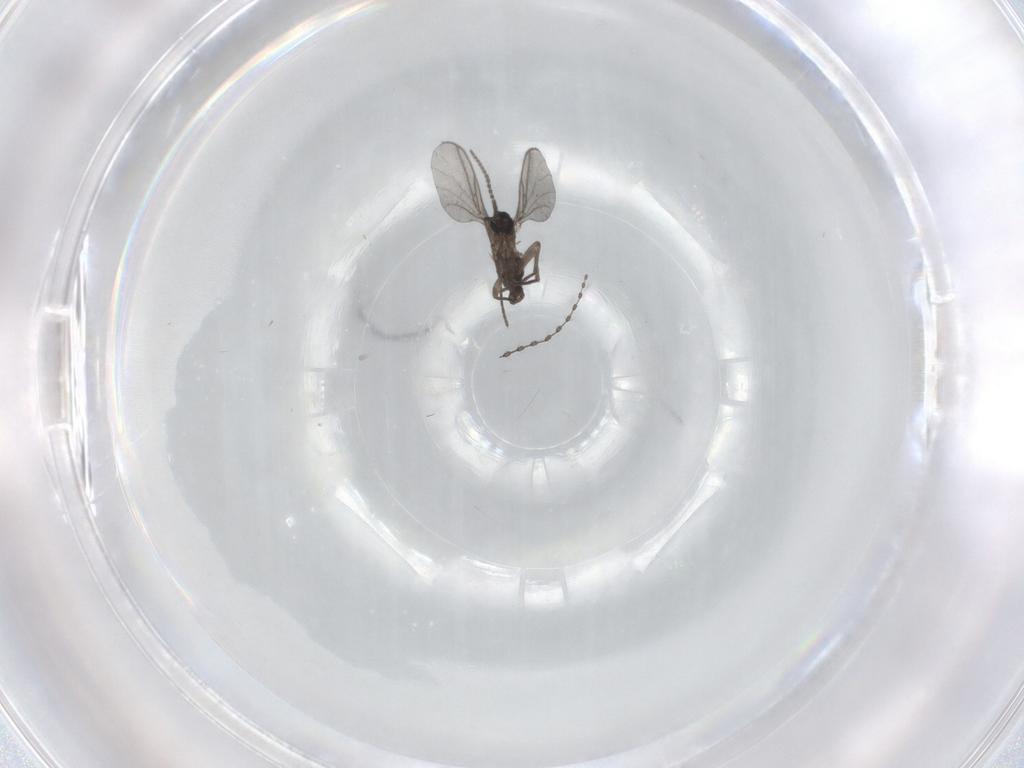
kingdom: Animalia
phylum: Arthropoda
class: Insecta
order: Diptera
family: Cecidomyiidae
